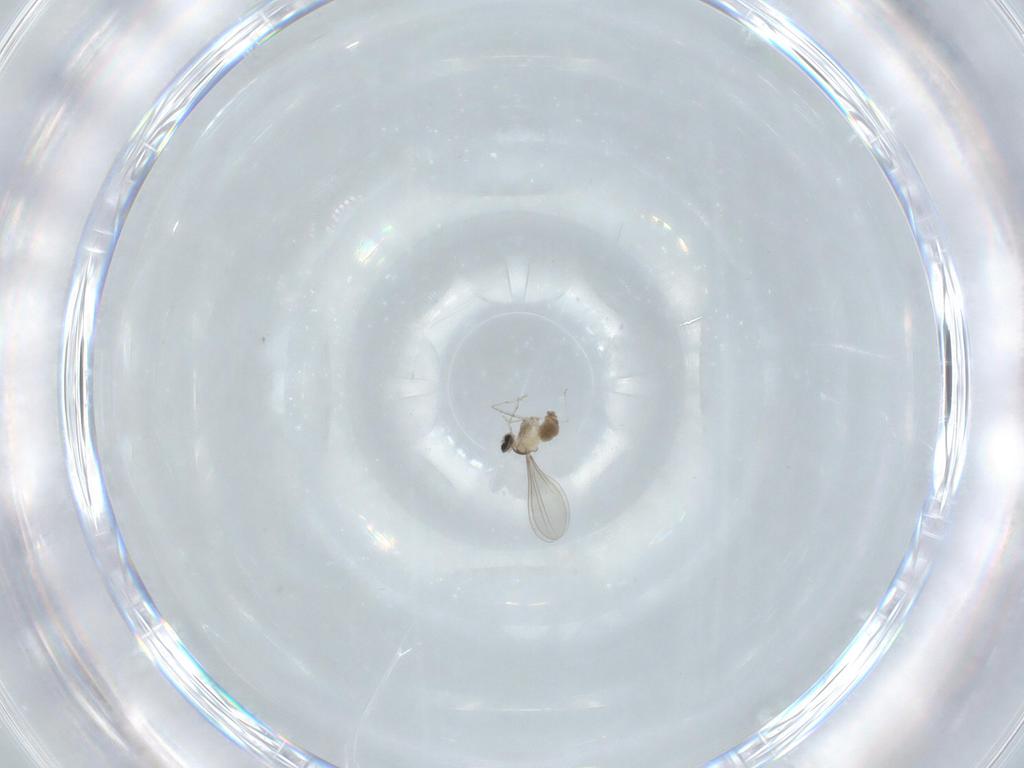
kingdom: Animalia
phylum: Arthropoda
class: Insecta
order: Diptera
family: Cecidomyiidae
